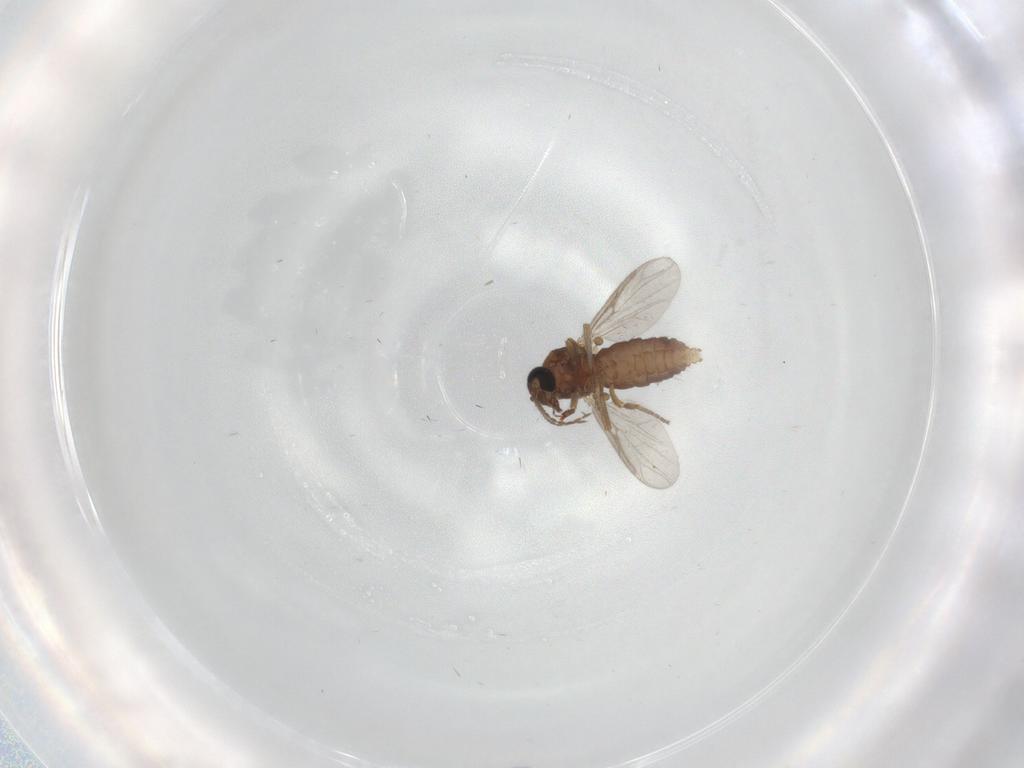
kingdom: Animalia
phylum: Arthropoda
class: Insecta
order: Diptera
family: Ceratopogonidae
